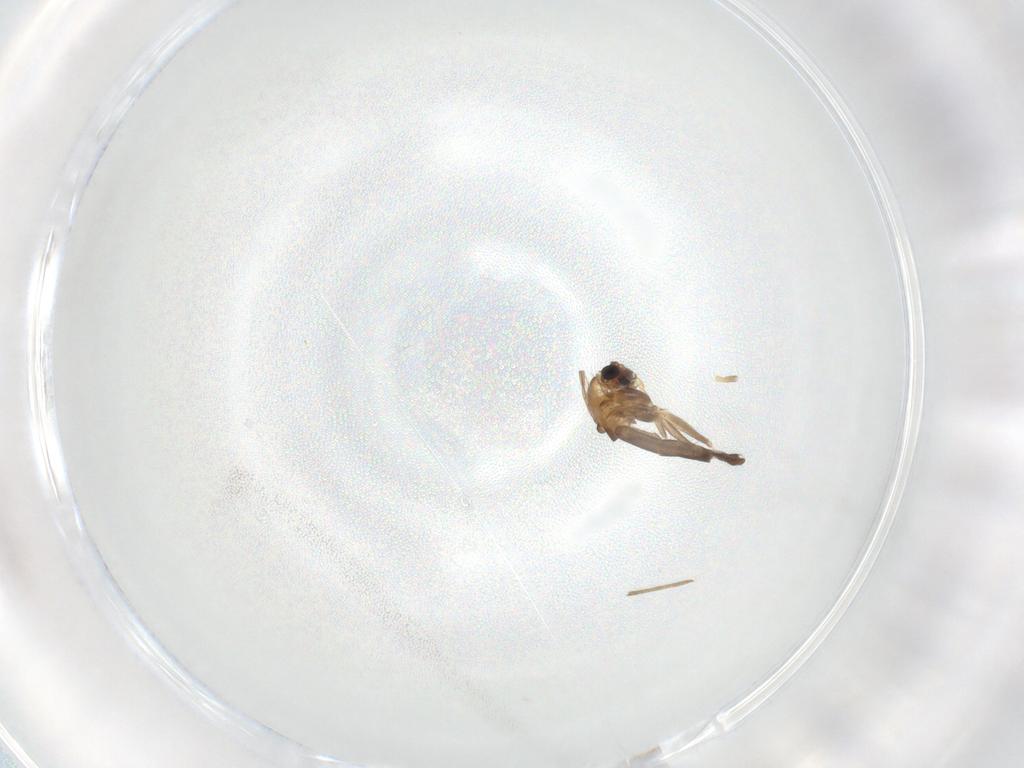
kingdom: Animalia
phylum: Arthropoda
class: Insecta
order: Diptera
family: Chironomidae
